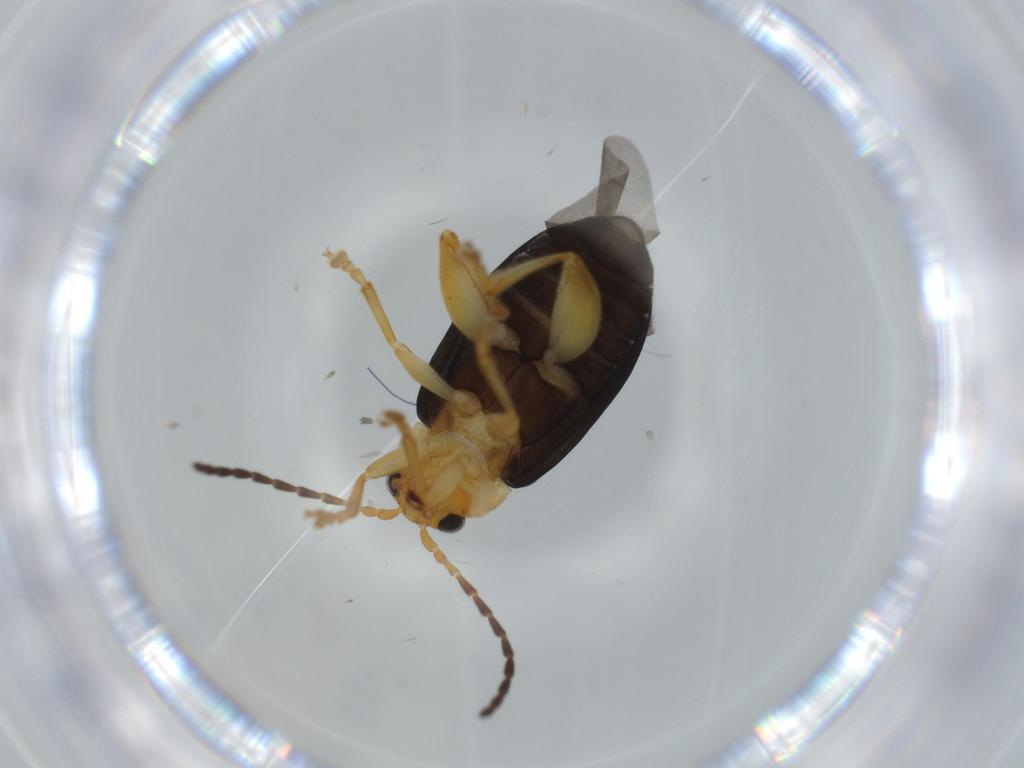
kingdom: Animalia
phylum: Arthropoda
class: Insecta
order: Coleoptera
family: Chrysomelidae
